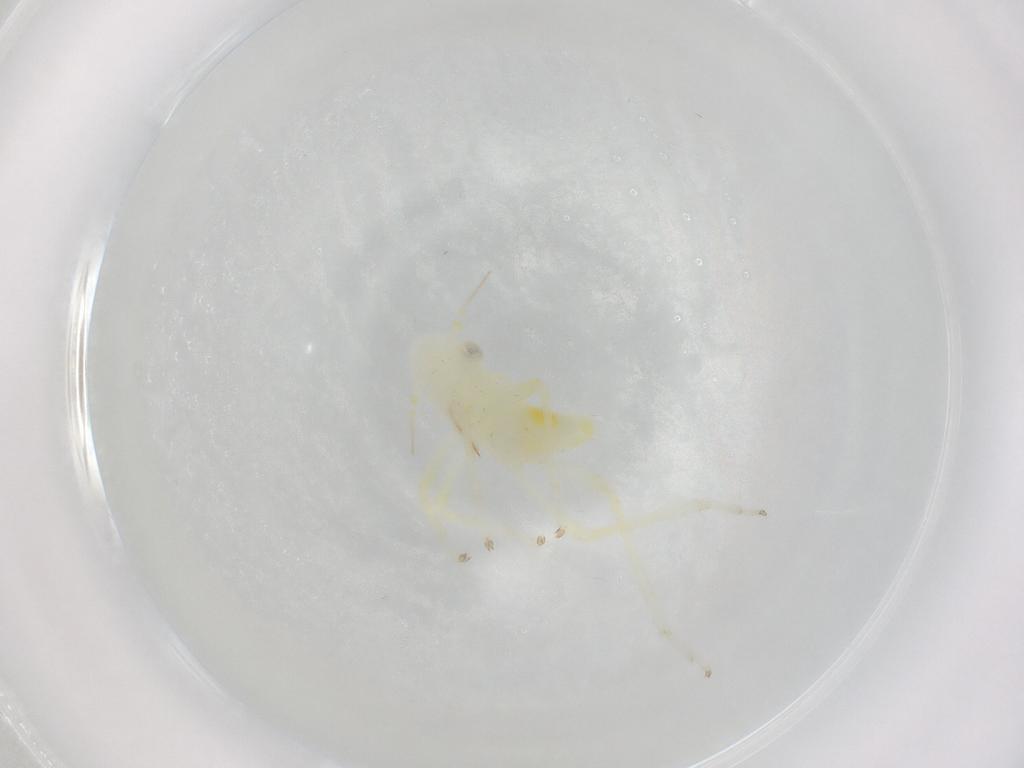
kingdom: Animalia
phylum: Arthropoda
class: Insecta
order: Hemiptera
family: Cicadellidae
